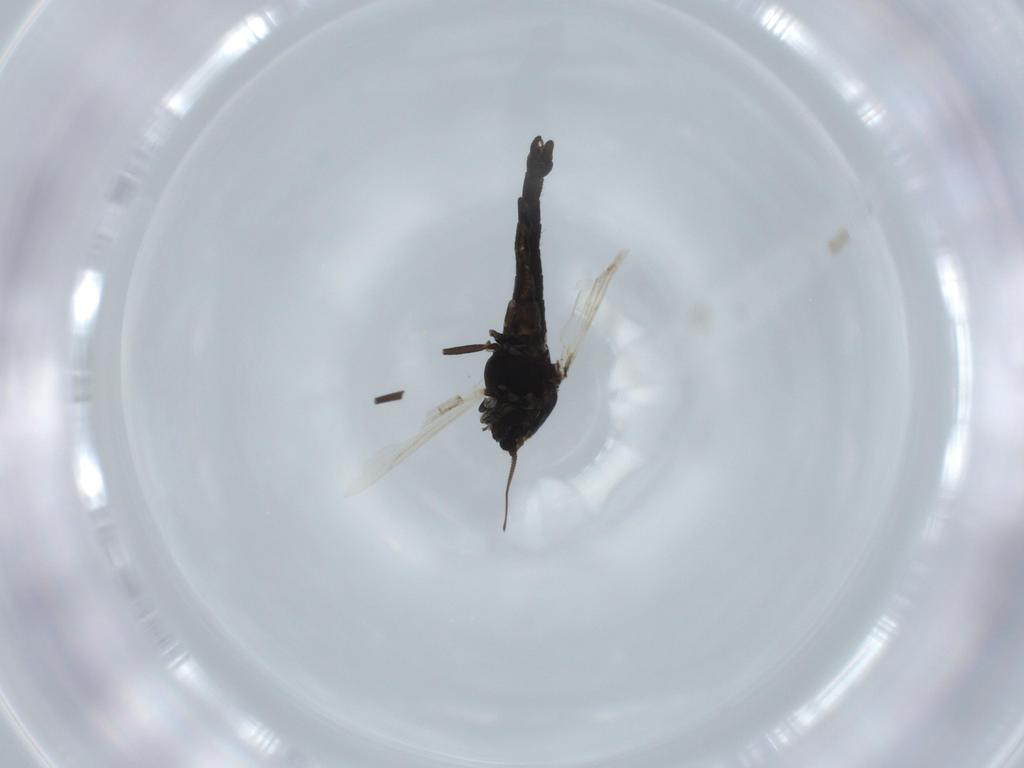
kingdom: Animalia
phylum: Arthropoda
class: Insecta
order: Diptera
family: Chironomidae
